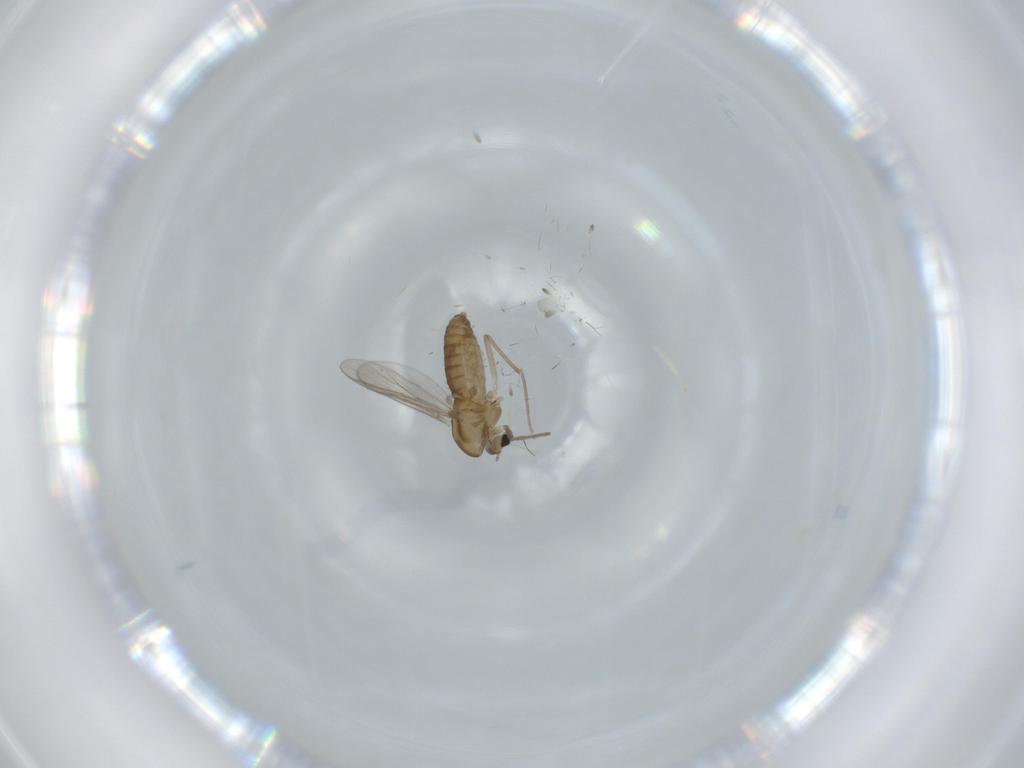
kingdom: Animalia
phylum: Arthropoda
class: Insecta
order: Diptera
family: Chironomidae
